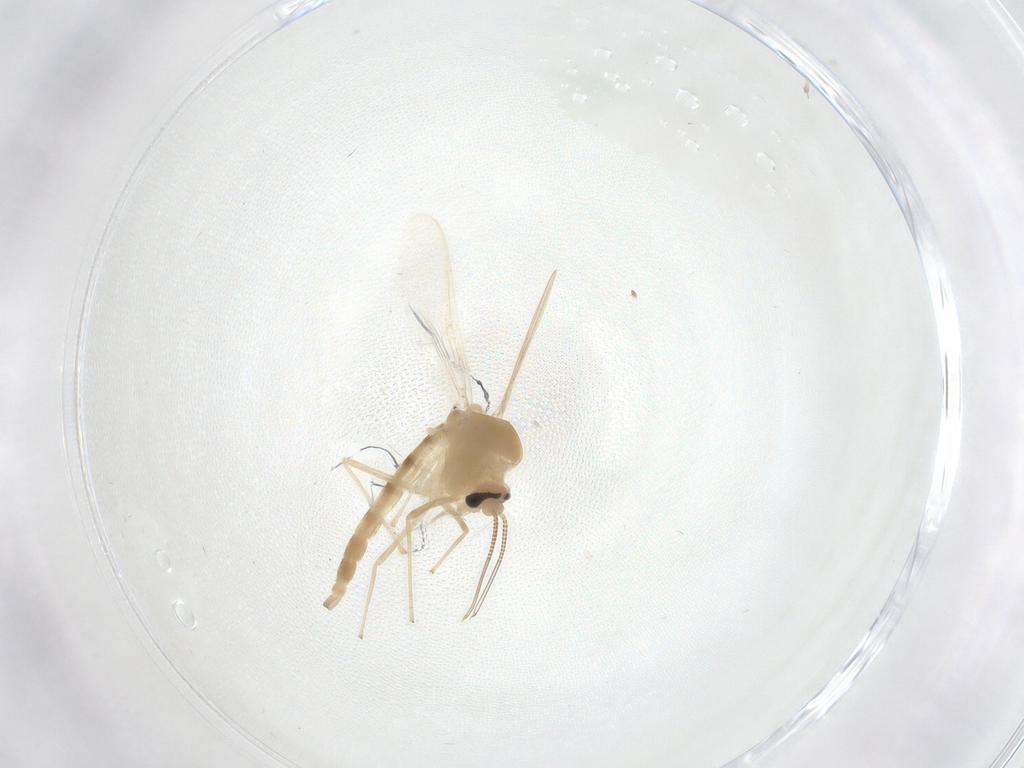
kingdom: Animalia
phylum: Arthropoda
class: Insecta
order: Diptera
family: Chironomidae
